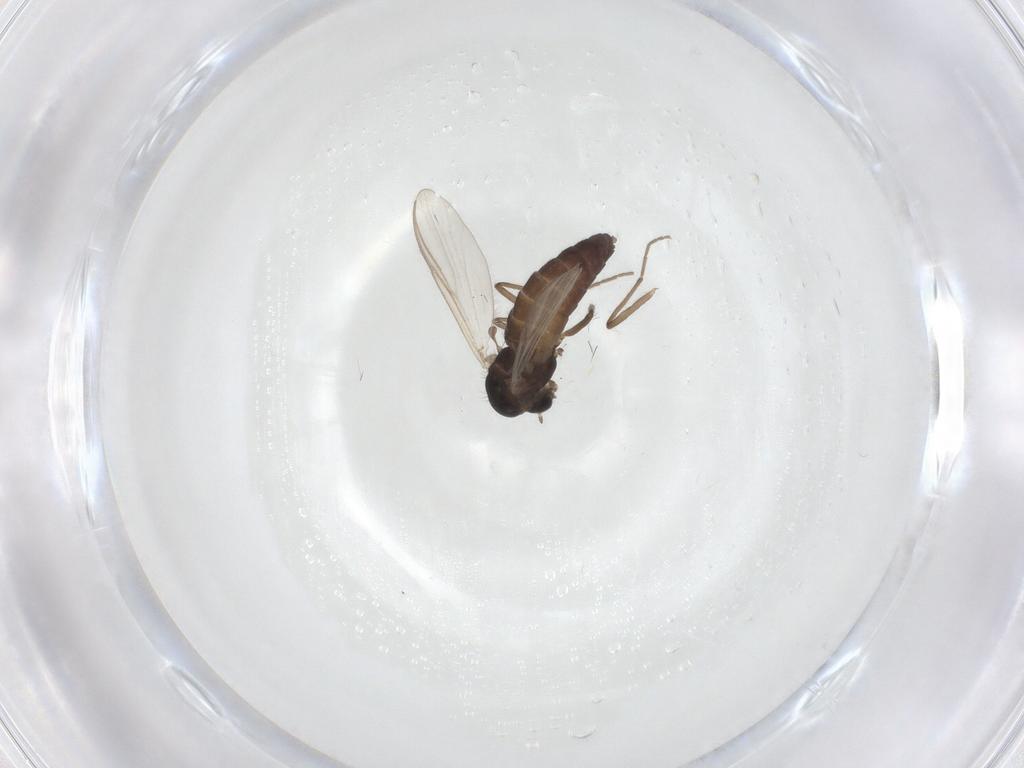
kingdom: Animalia
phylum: Arthropoda
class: Insecta
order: Diptera
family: Chironomidae
